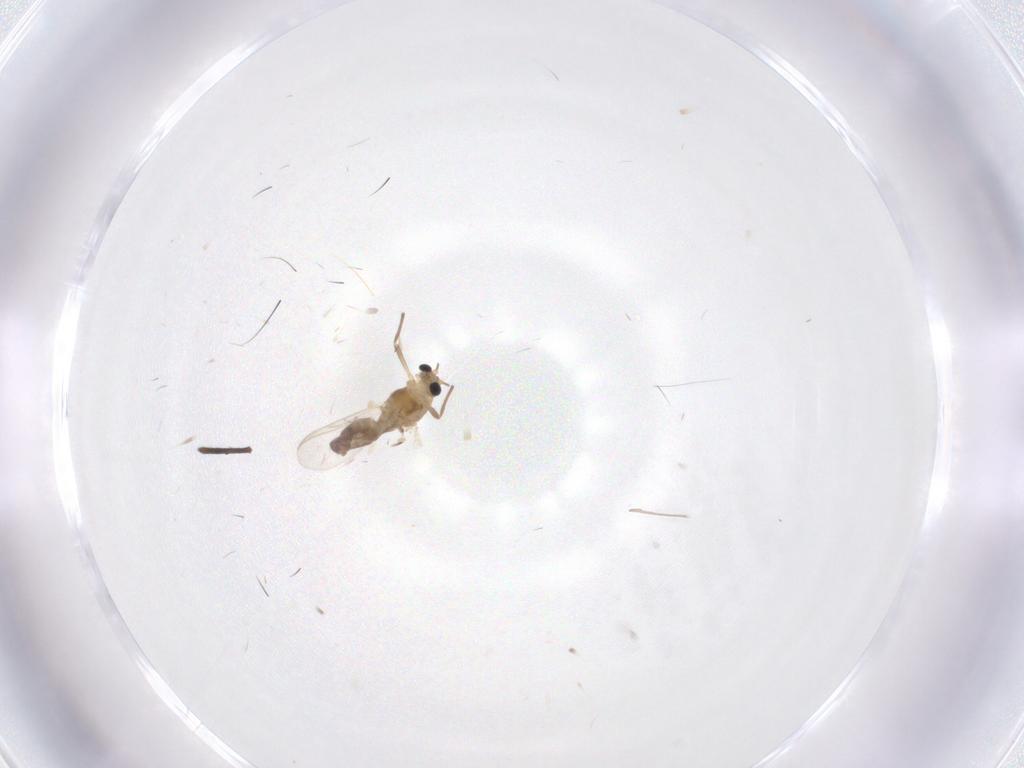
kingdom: Animalia
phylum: Arthropoda
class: Insecta
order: Diptera
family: Chironomidae
